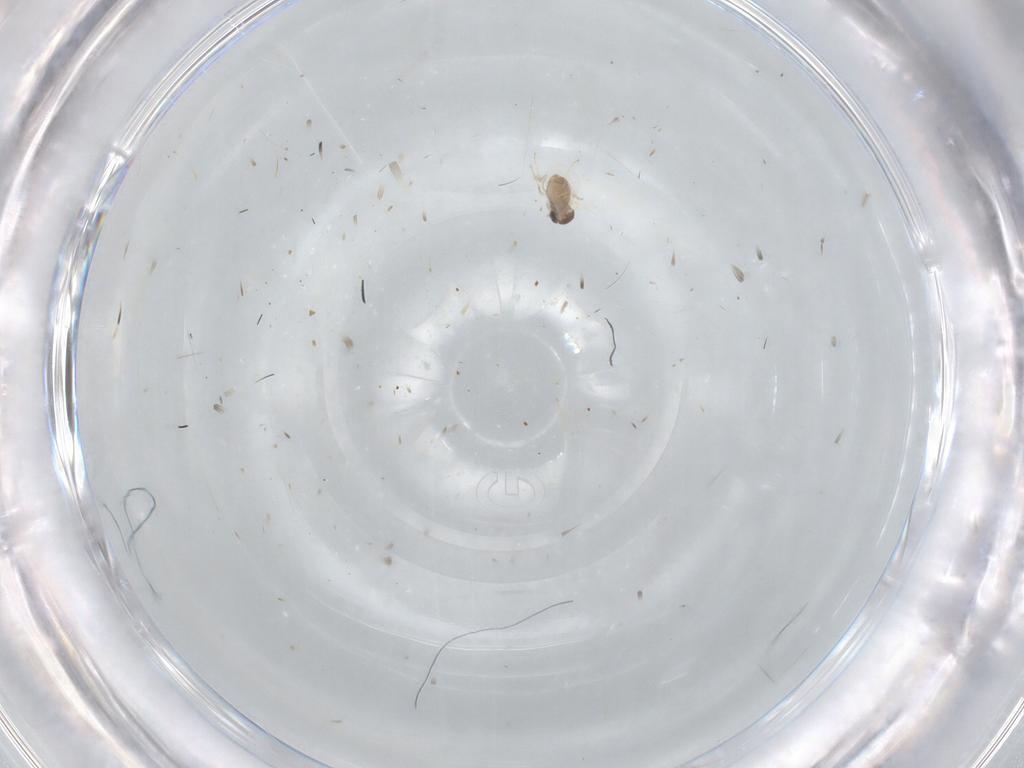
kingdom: Animalia
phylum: Arthropoda
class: Insecta
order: Diptera
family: Cecidomyiidae
